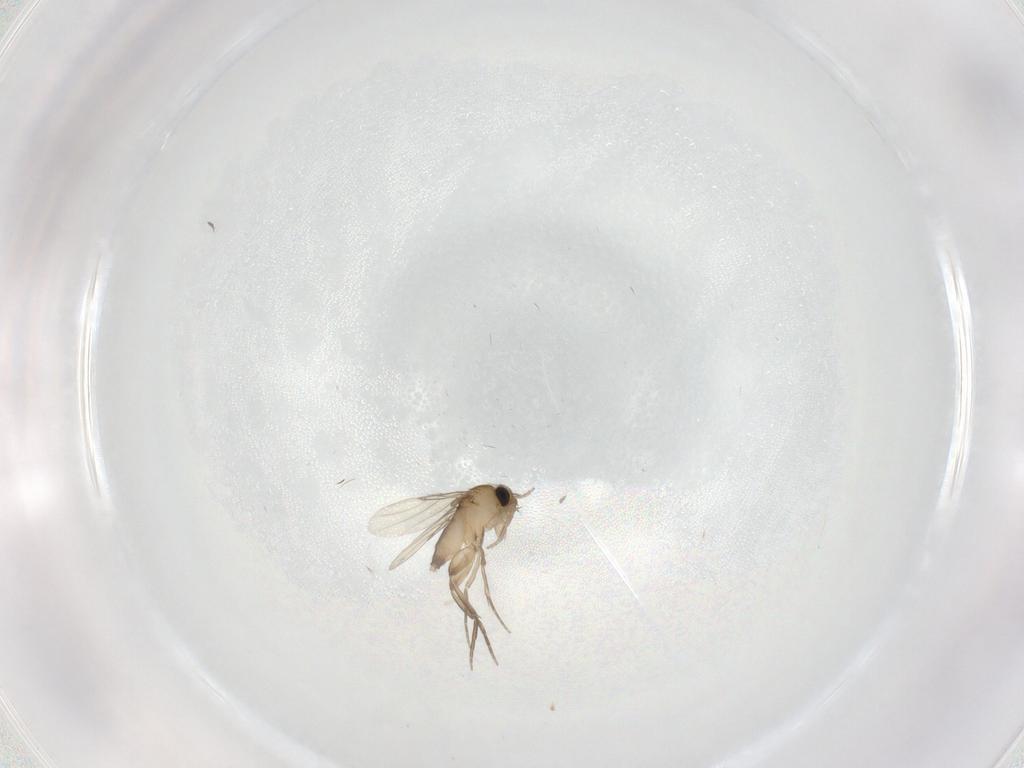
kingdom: Animalia
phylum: Arthropoda
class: Insecta
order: Diptera
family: Phoridae
